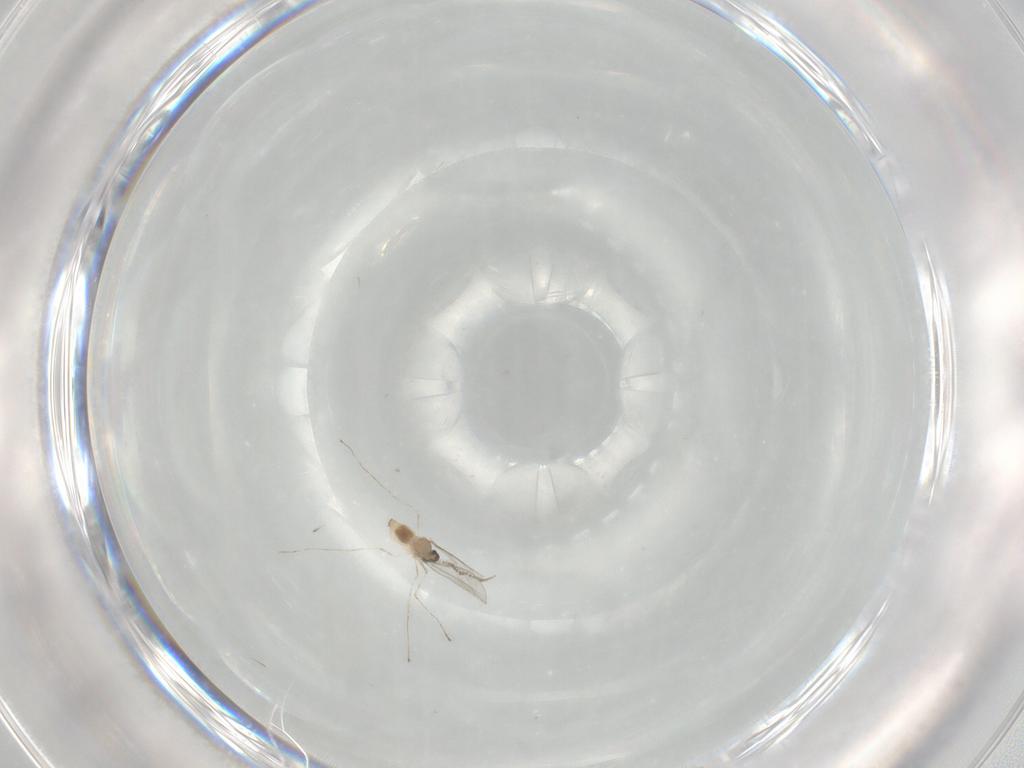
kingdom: Animalia
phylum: Arthropoda
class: Insecta
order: Diptera
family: Cecidomyiidae
